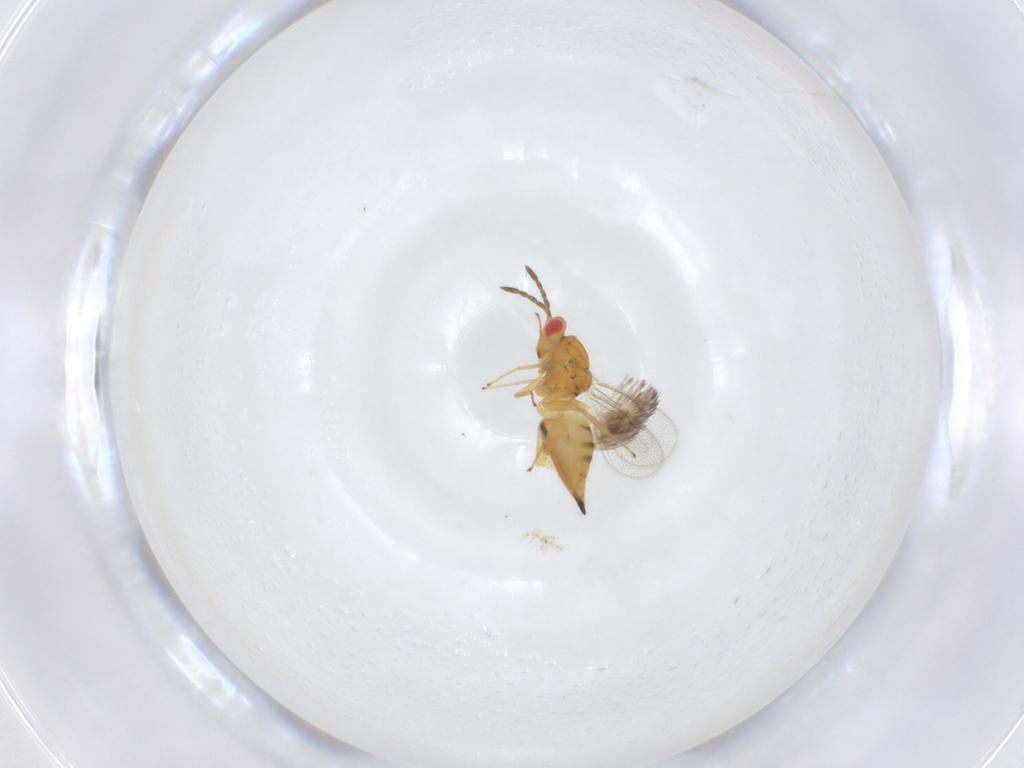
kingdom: Animalia
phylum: Arthropoda
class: Insecta
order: Hymenoptera
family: Eulophidae
